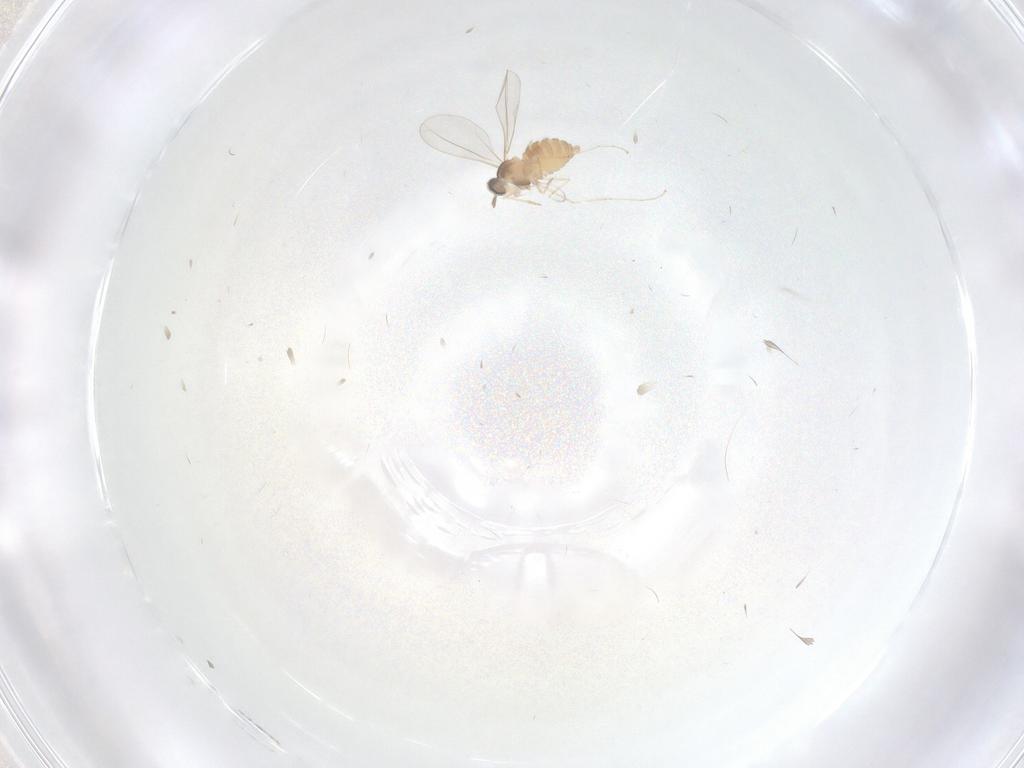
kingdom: Animalia
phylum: Arthropoda
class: Insecta
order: Diptera
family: Cecidomyiidae
